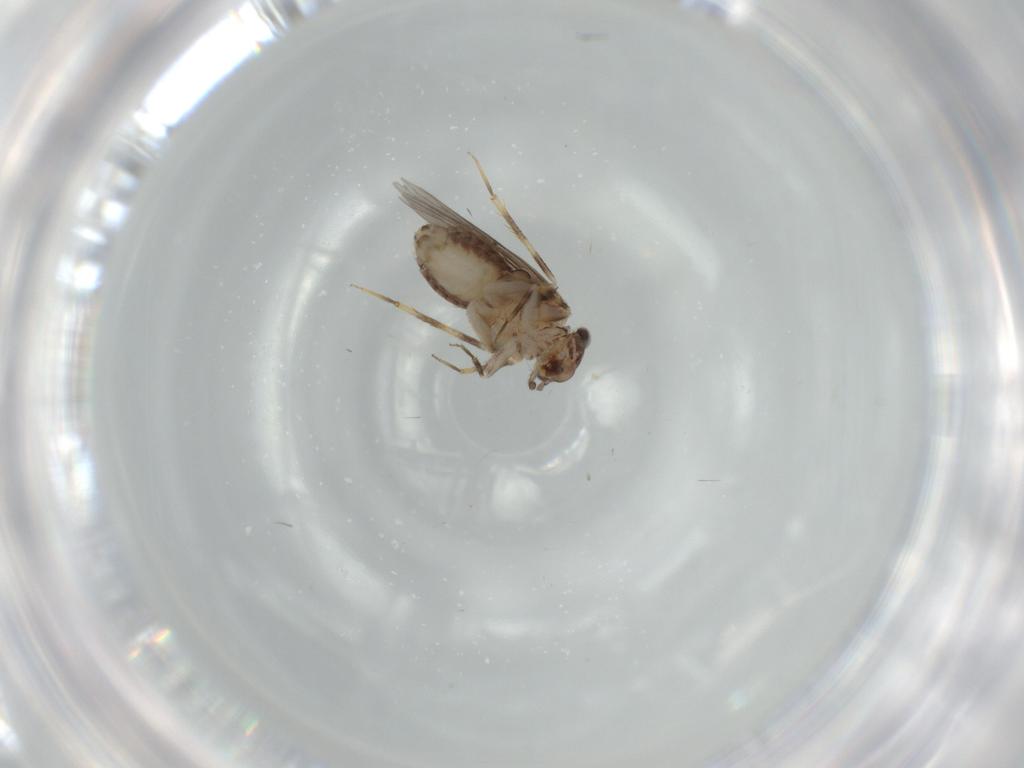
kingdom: Animalia
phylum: Arthropoda
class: Insecta
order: Psocodea
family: Lepidopsocidae
